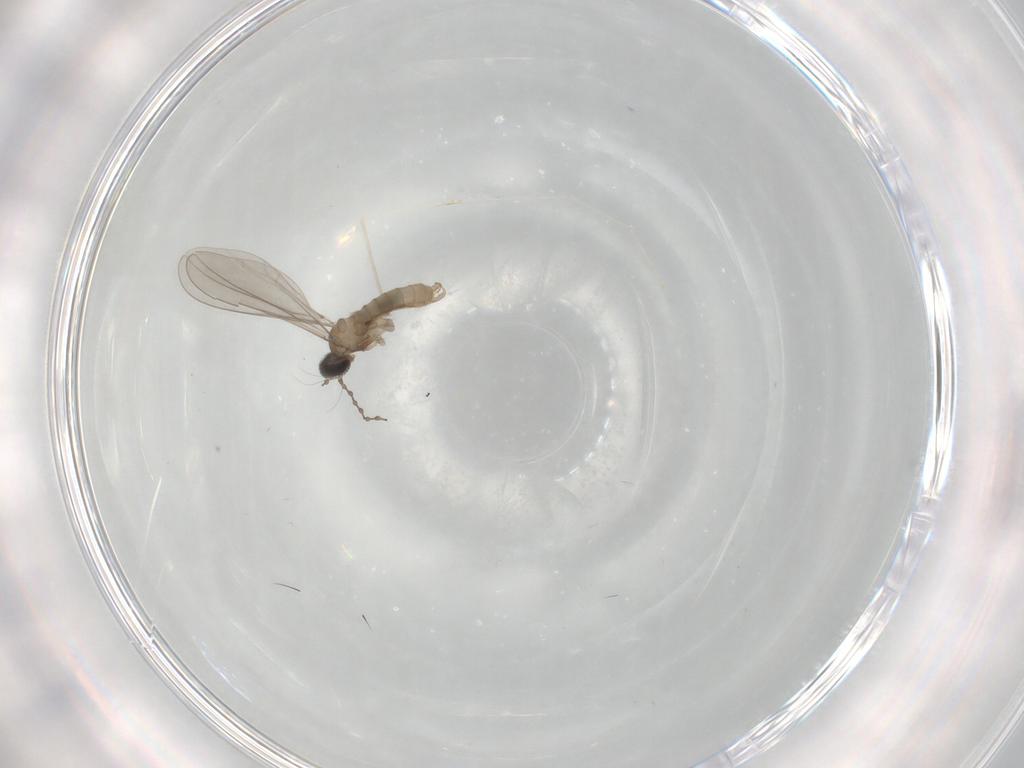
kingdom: Animalia
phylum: Arthropoda
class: Insecta
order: Diptera
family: Cecidomyiidae
